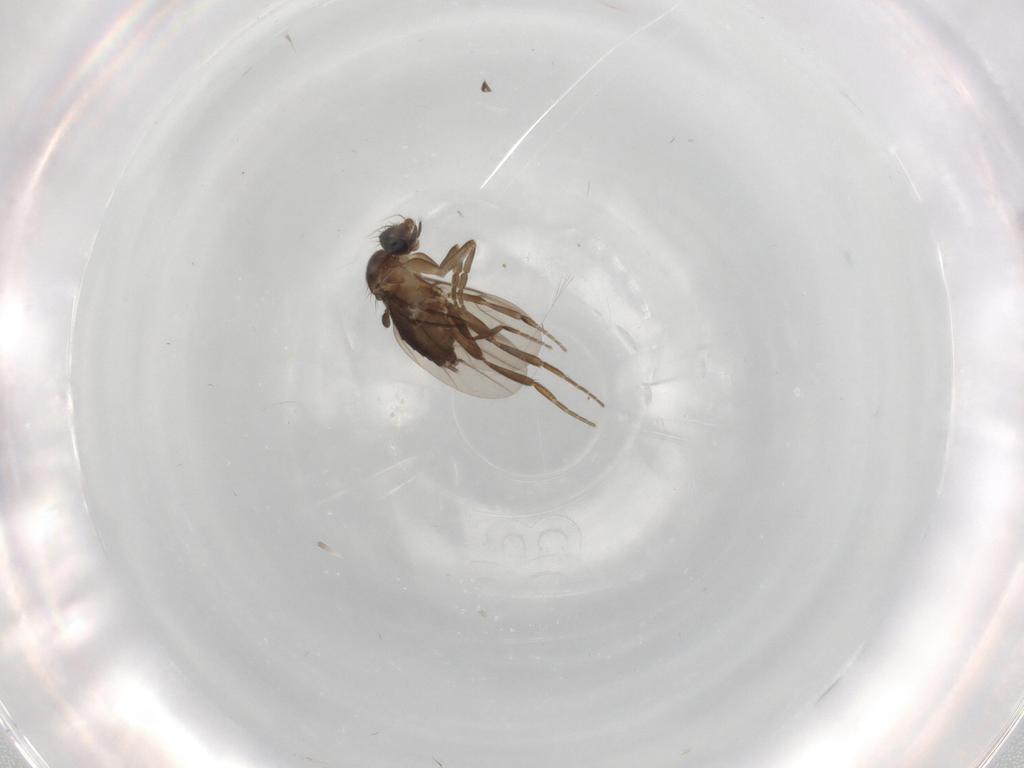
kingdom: Animalia
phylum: Arthropoda
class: Insecta
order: Diptera
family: Phoridae
